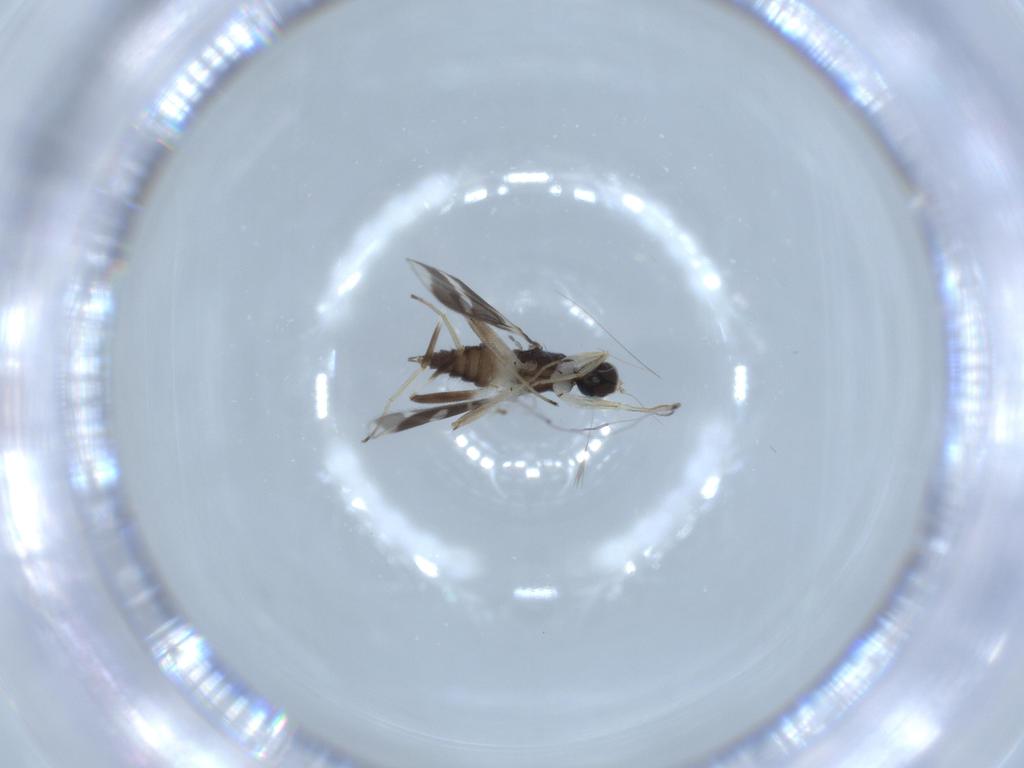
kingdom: Animalia
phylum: Arthropoda
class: Insecta
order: Diptera
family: Hybotidae
